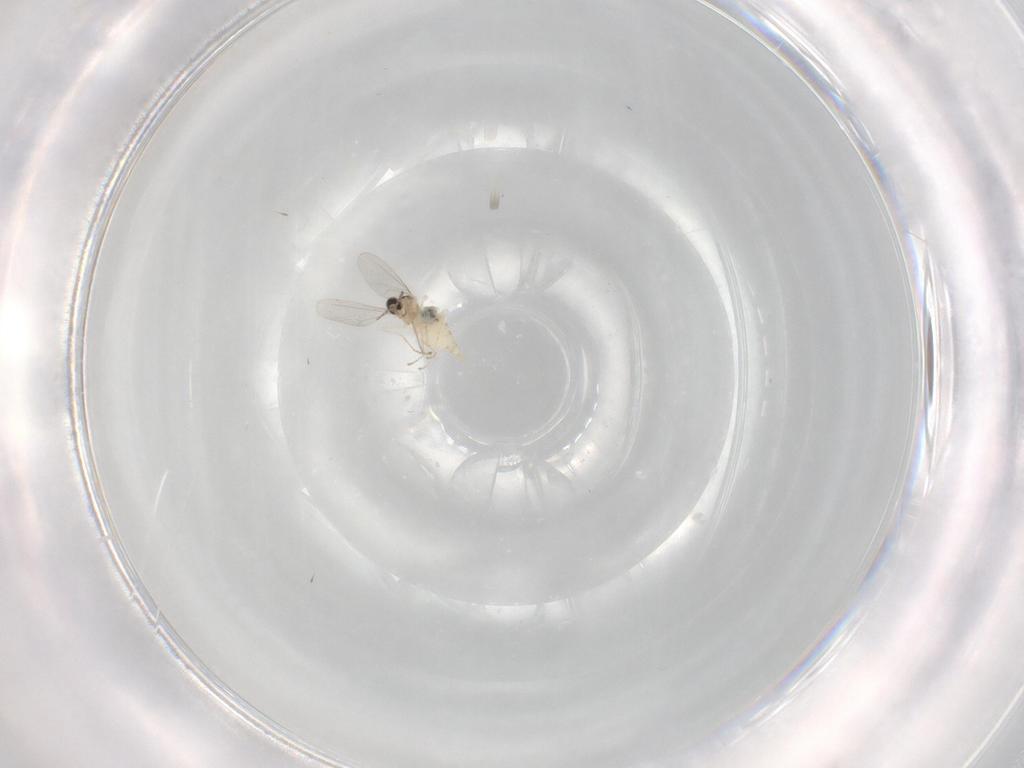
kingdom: Animalia
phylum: Arthropoda
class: Insecta
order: Diptera
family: Cecidomyiidae
